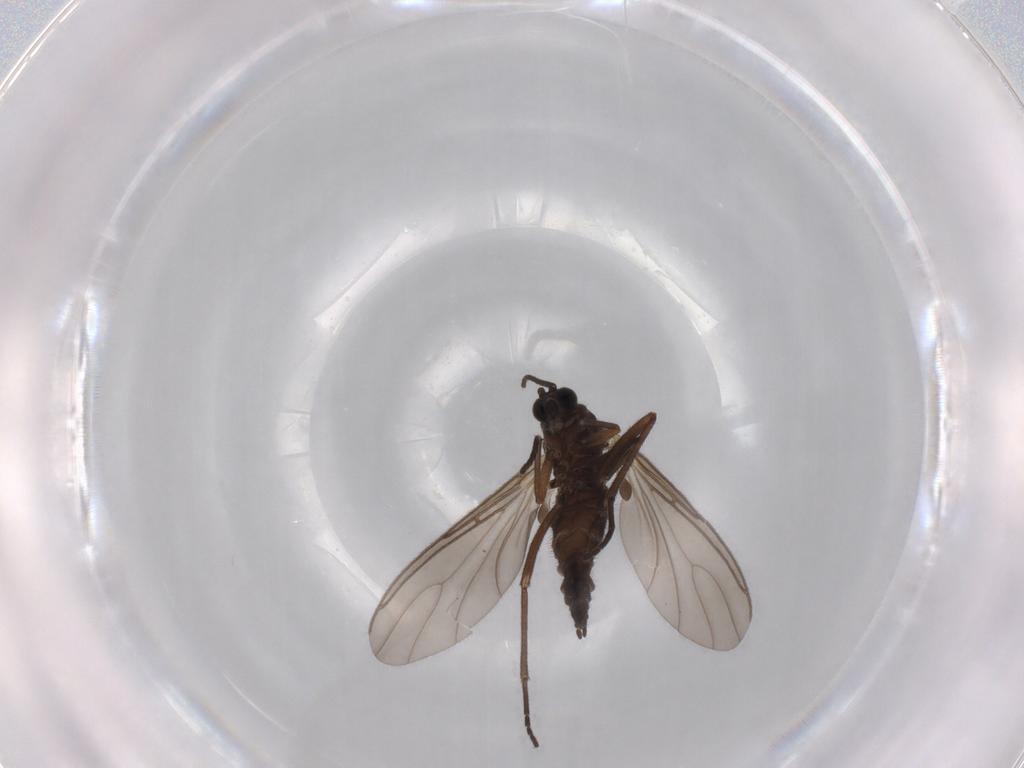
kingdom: Animalia
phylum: Arthropoda
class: Insecta
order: Diptera
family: Sciaridae
